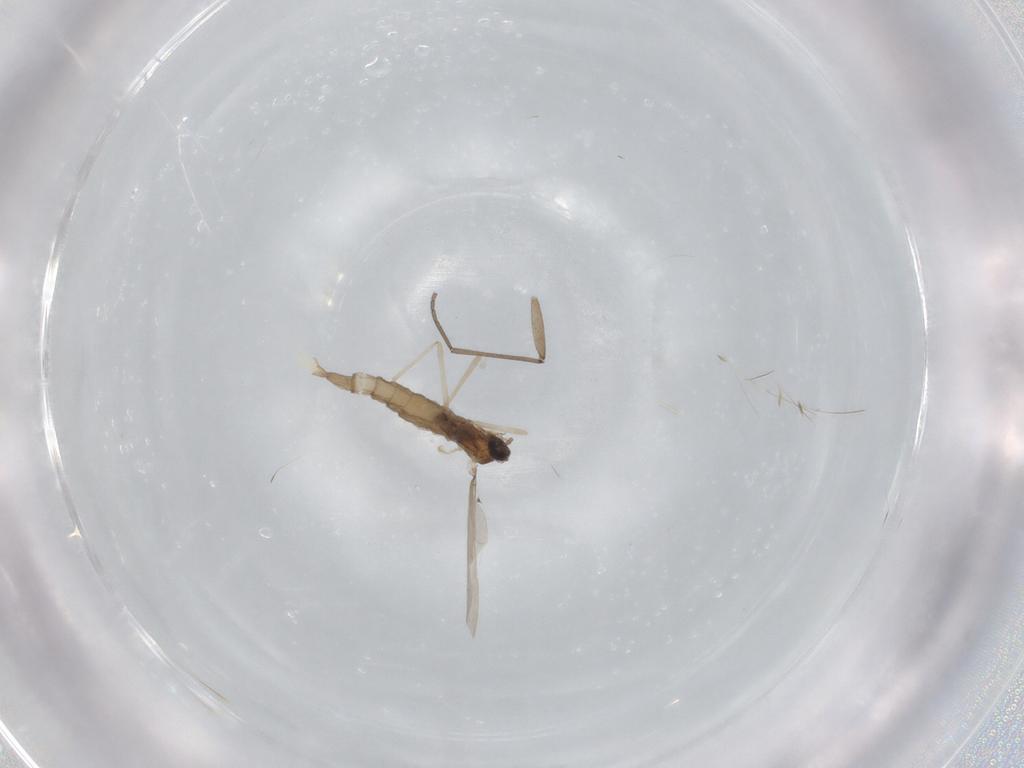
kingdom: Animalia
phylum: Arthropoda
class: Insecta
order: Diptera
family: Cecidomyiidae
